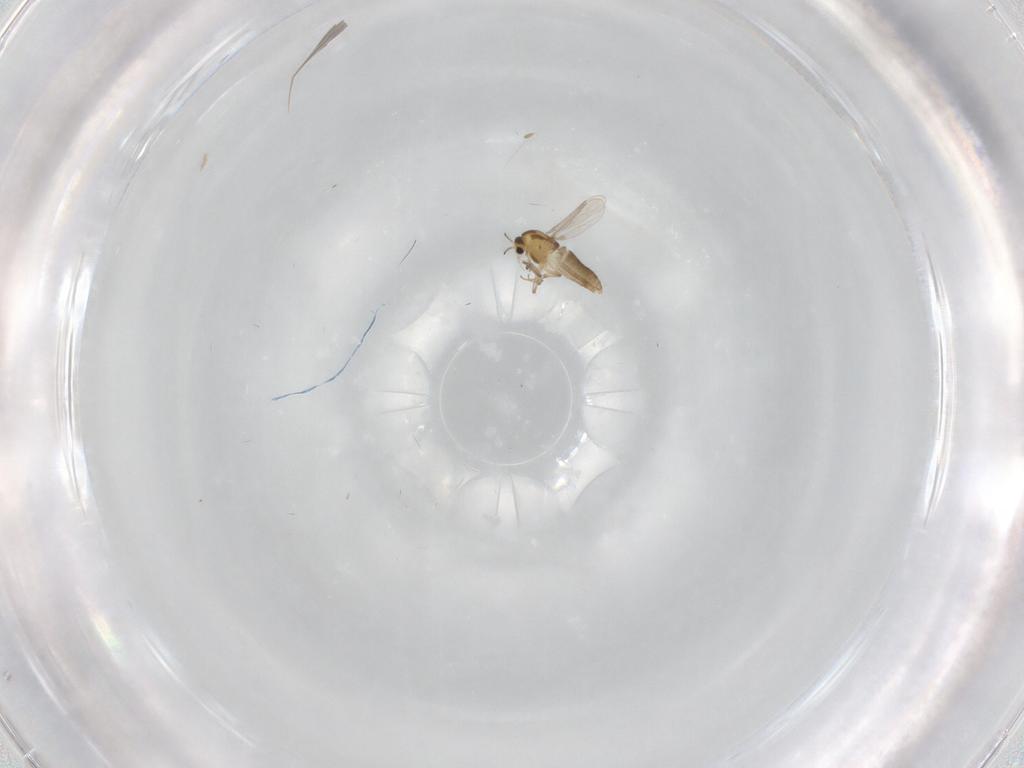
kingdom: Animalia
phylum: Arthropoda
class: Insecta
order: Diptera
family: Chironomidae
